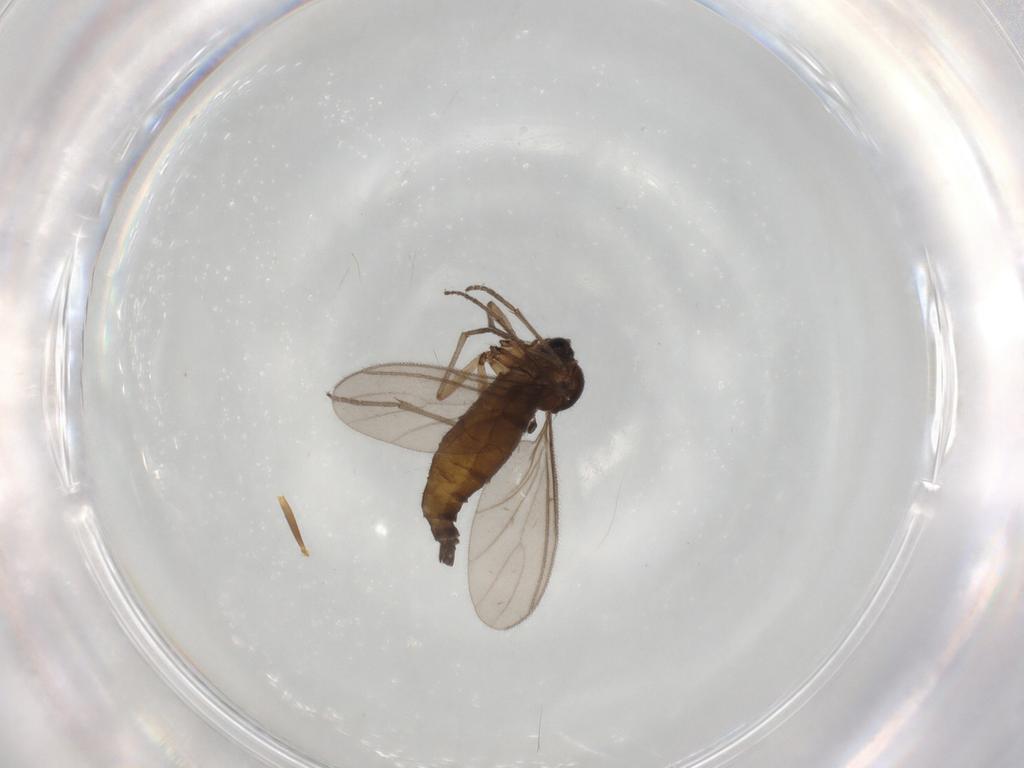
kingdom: Animalia
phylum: Arthropoda
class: Insecta
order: Diptera
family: Sciaridae
